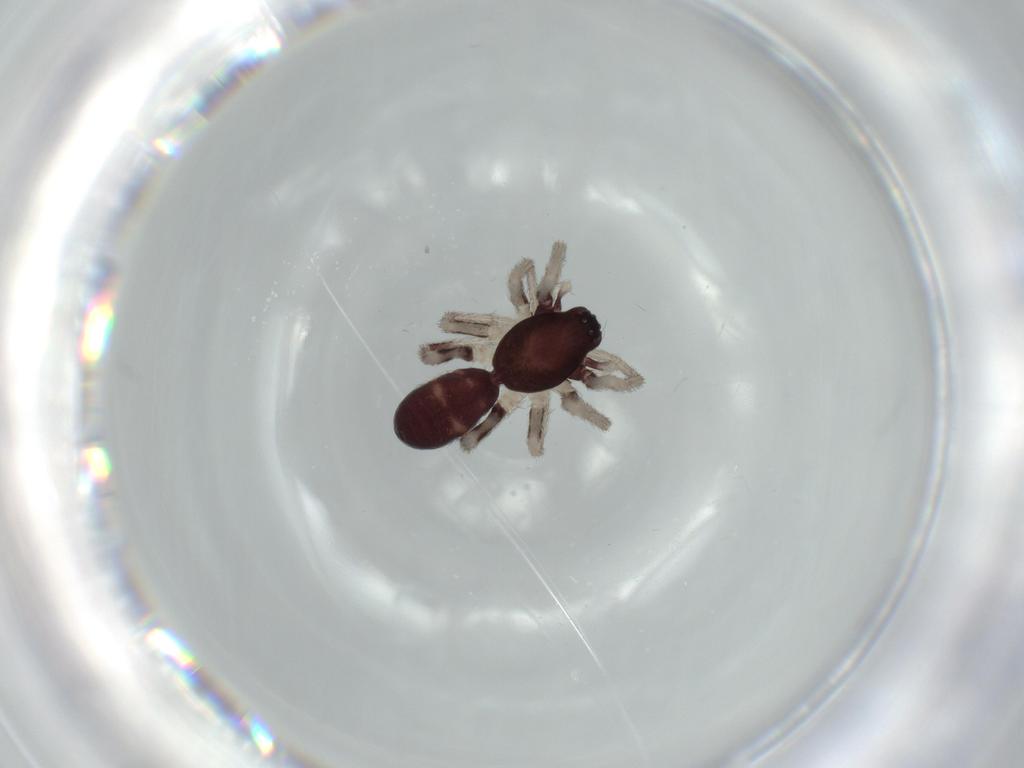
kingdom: Animalia
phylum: Arthropoda
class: Arachnida
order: Araneae
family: Corinnidae
